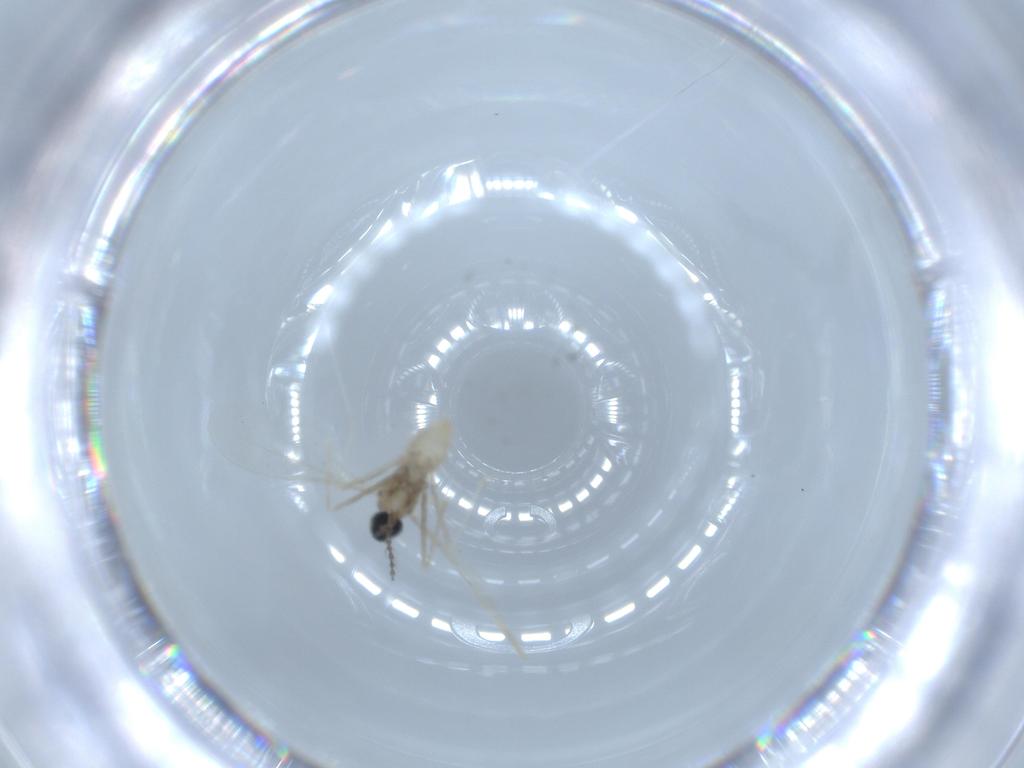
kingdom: Animalia
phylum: Arthropoda
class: Insecta
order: Diptera
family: Cecidomyiidae
